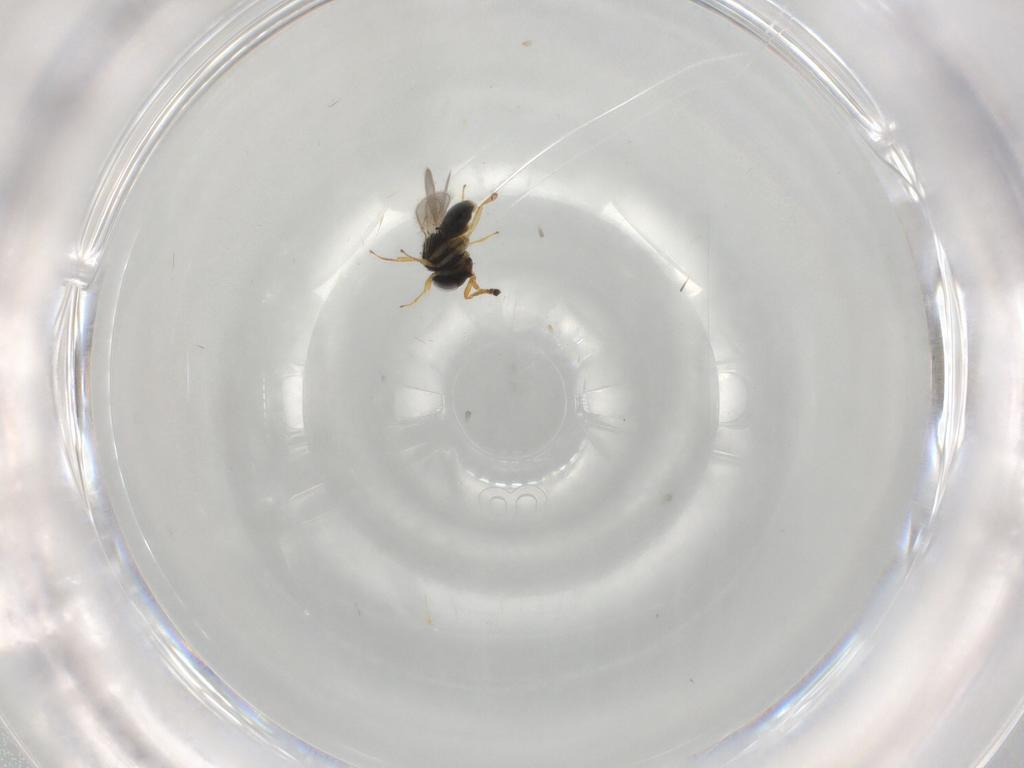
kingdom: Animalia
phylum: Arthropoda
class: Insecta
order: Hymenoptera
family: Scelionidae
